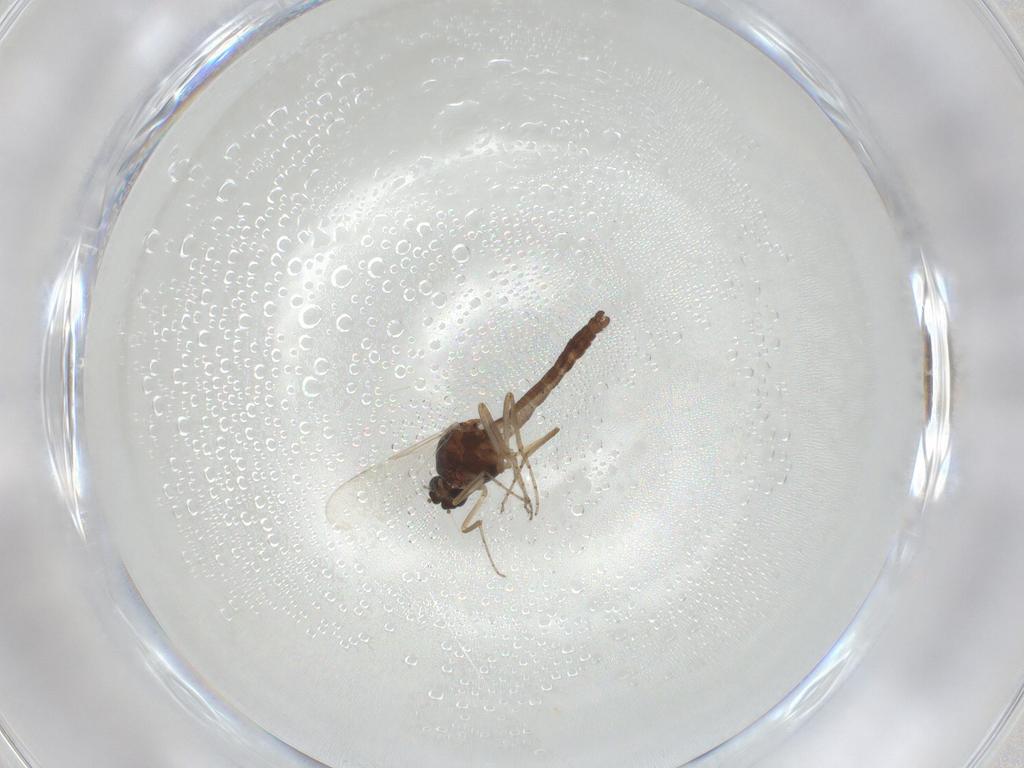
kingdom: Animalia
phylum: Arthropoda
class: Insecta
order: Diptera
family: Ceratopogonidae
